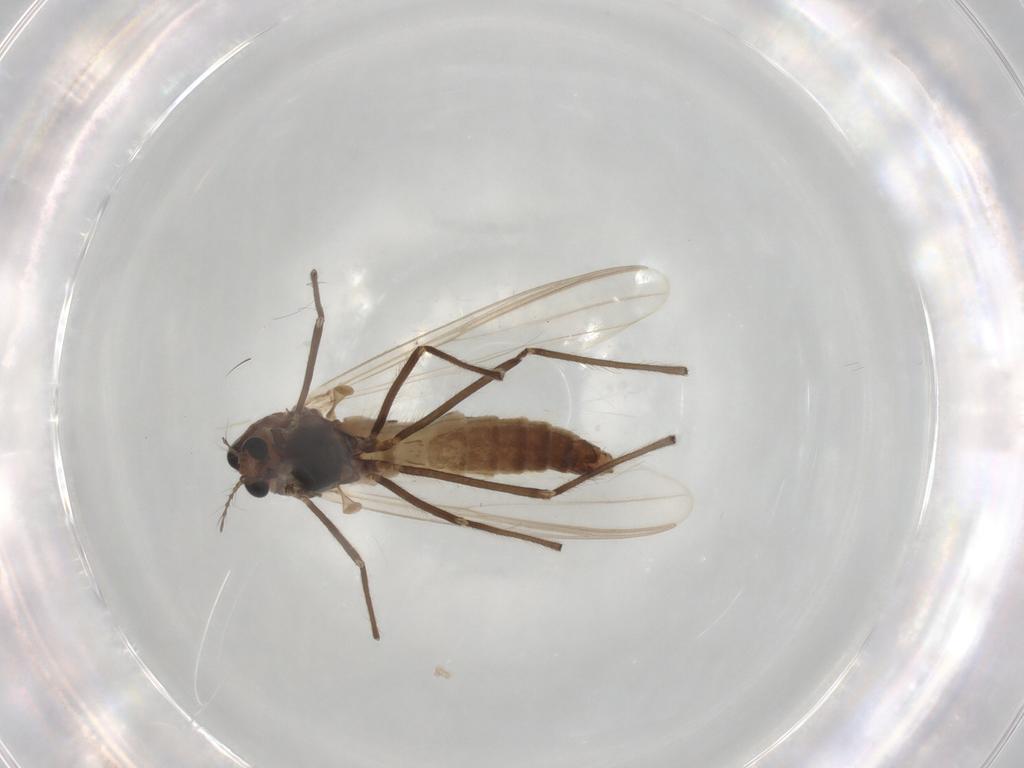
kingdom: Animalia
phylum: Arthropoda
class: Insecta
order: Diptera
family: Chironomidae
